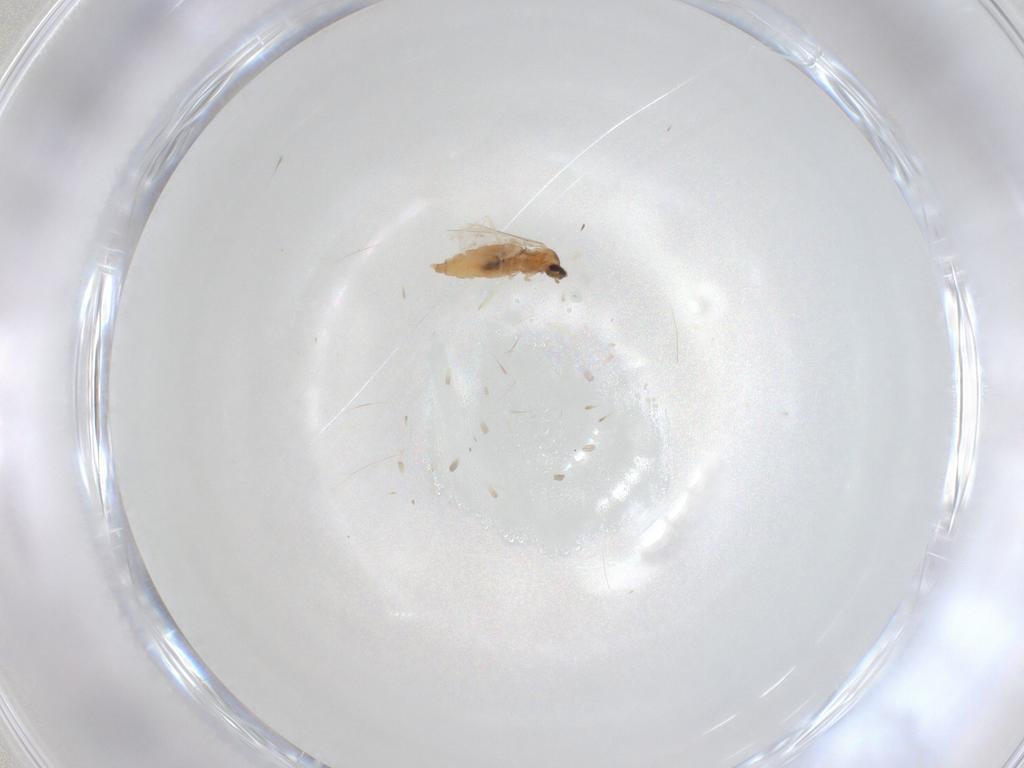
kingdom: Animalia
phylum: Arthropoda
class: Insecta
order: Diptera
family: Cecidomyiidae
